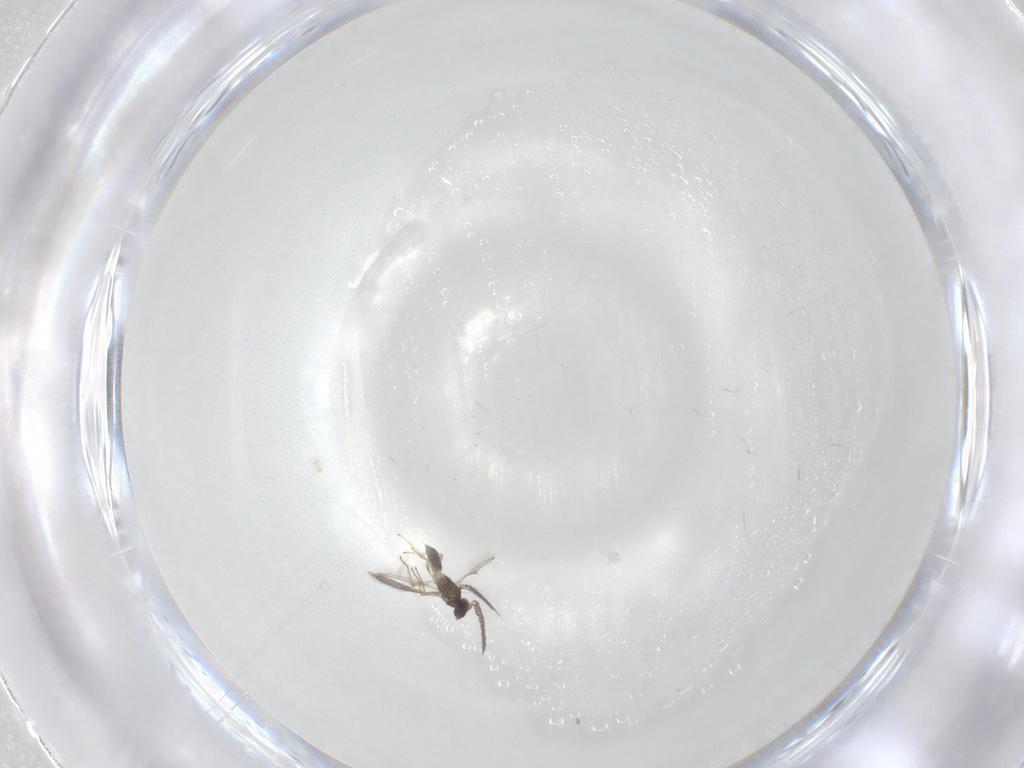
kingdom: Animalia
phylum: Arthropoda
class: Insecta
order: Hymenoptera
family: Eulophidae
